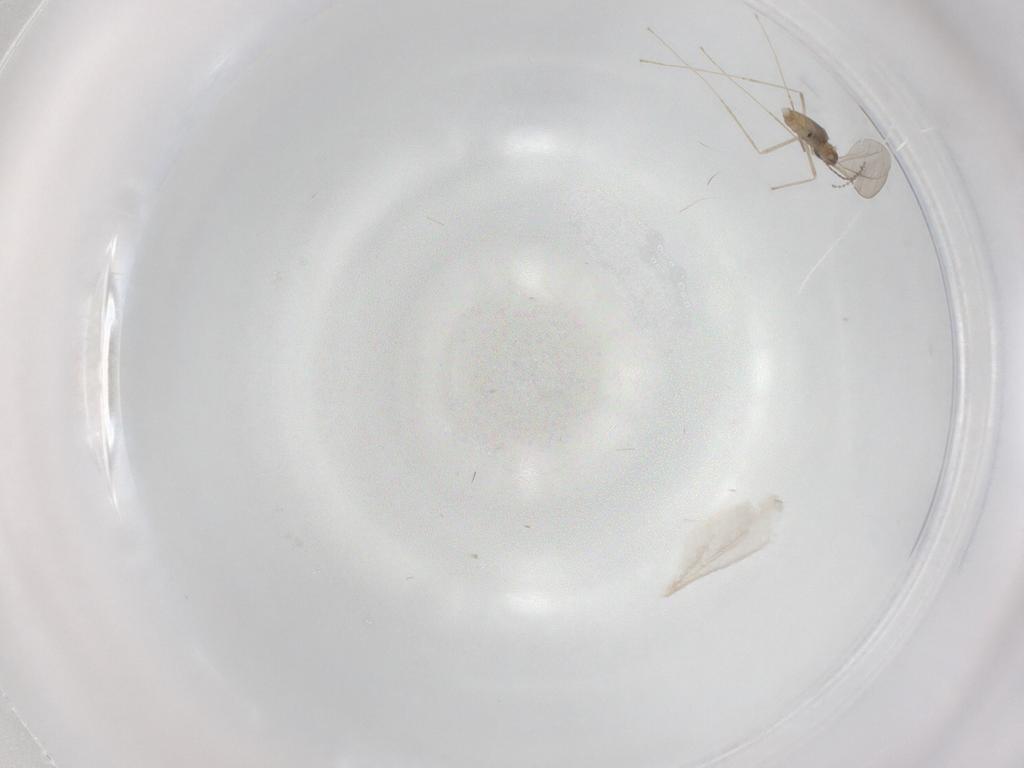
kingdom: Animalia
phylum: Arthropoda
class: Insecta
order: Diptera
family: Cecidomyiidae
